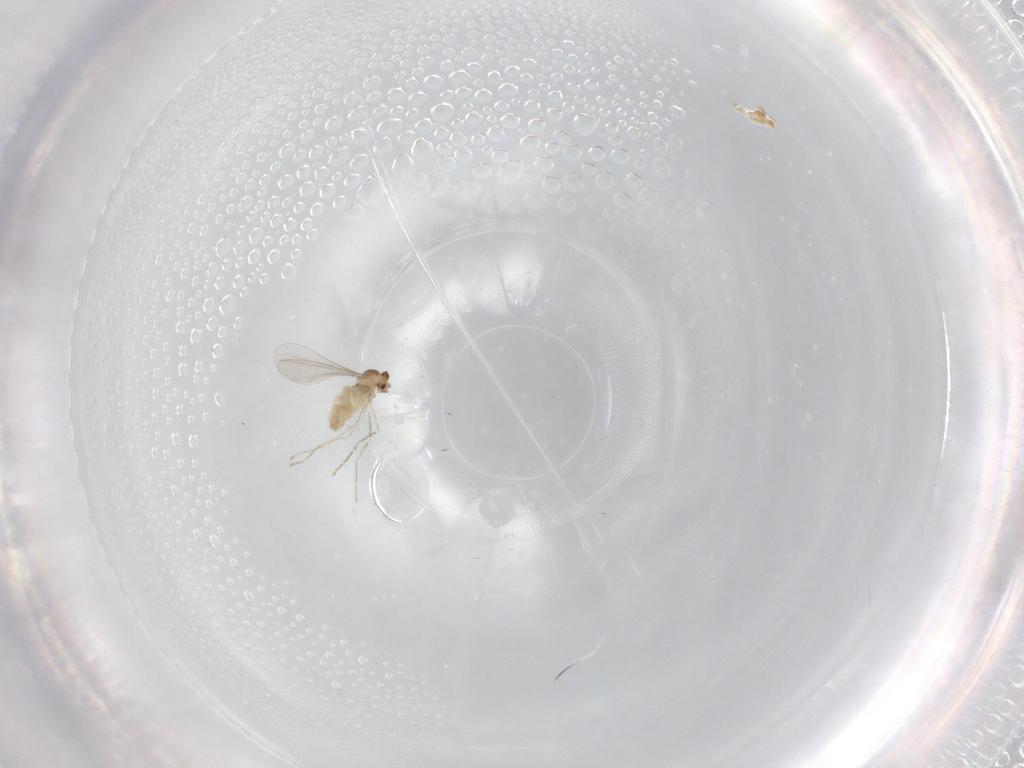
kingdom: Animalia
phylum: Arthropoda
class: Insecta
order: Diptera
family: Cecidomyiidae
